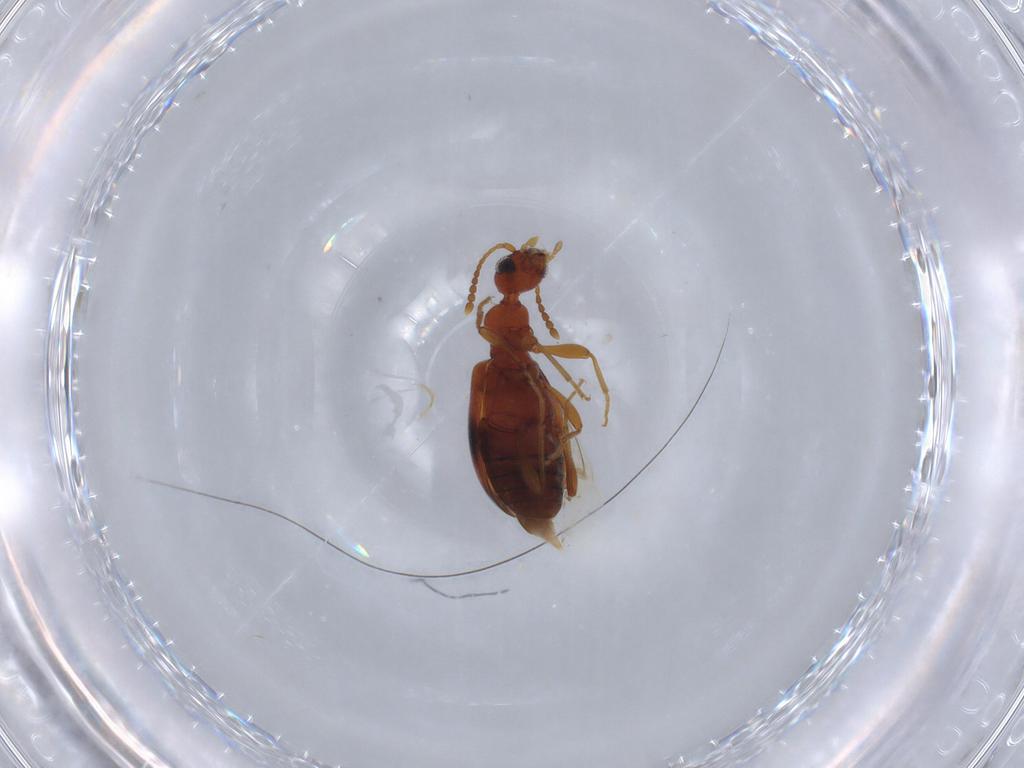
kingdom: Animalia
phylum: Arthropoda
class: Insecta
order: Coleoptera
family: Anthicidae
